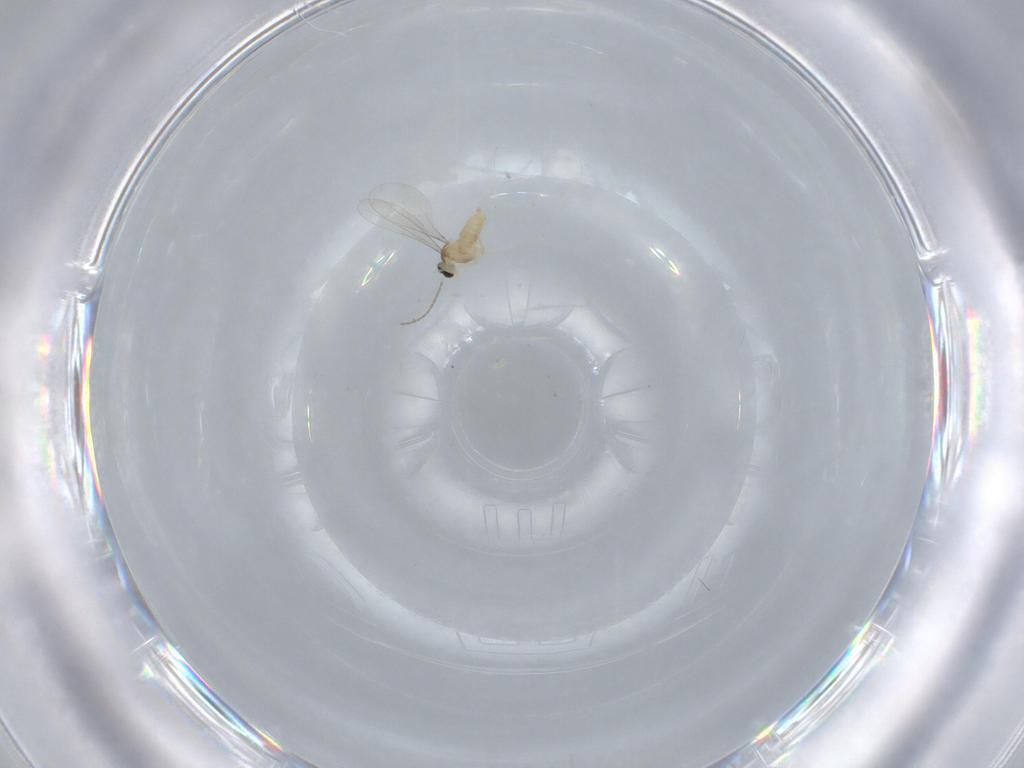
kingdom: Animalia
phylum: Arthropoda
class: Insecta
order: Diptera
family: Cecidomyiidae
